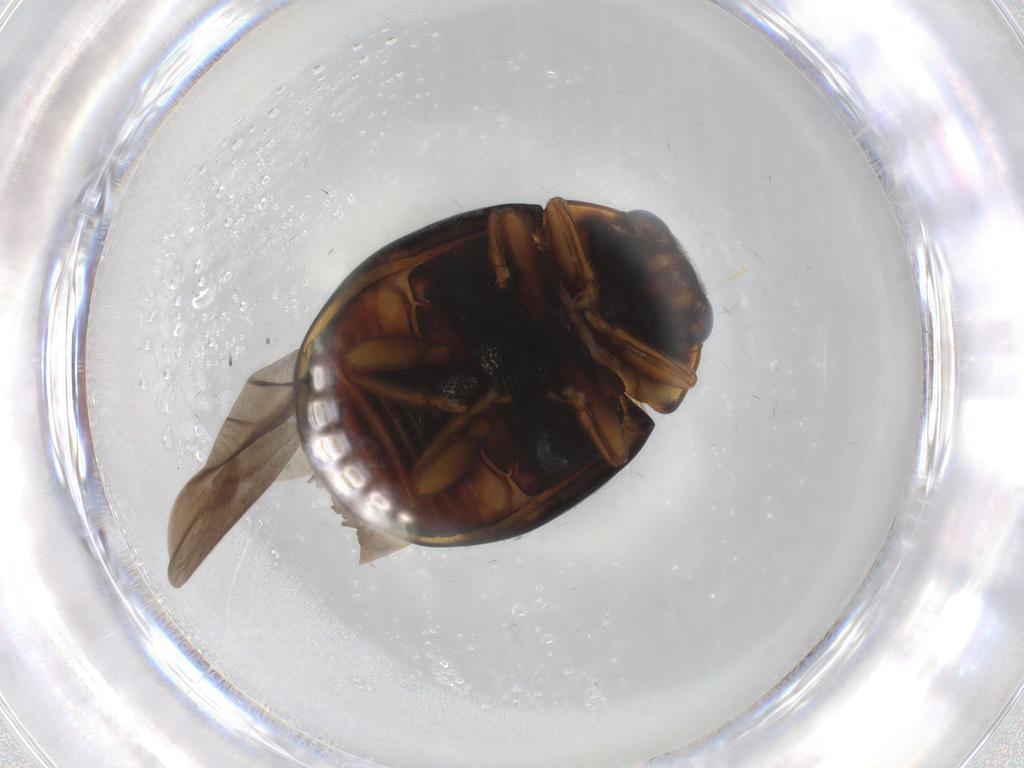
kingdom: Animalia
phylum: Arthropoda
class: Insecta
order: Coleoptera
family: Coccinellidae
